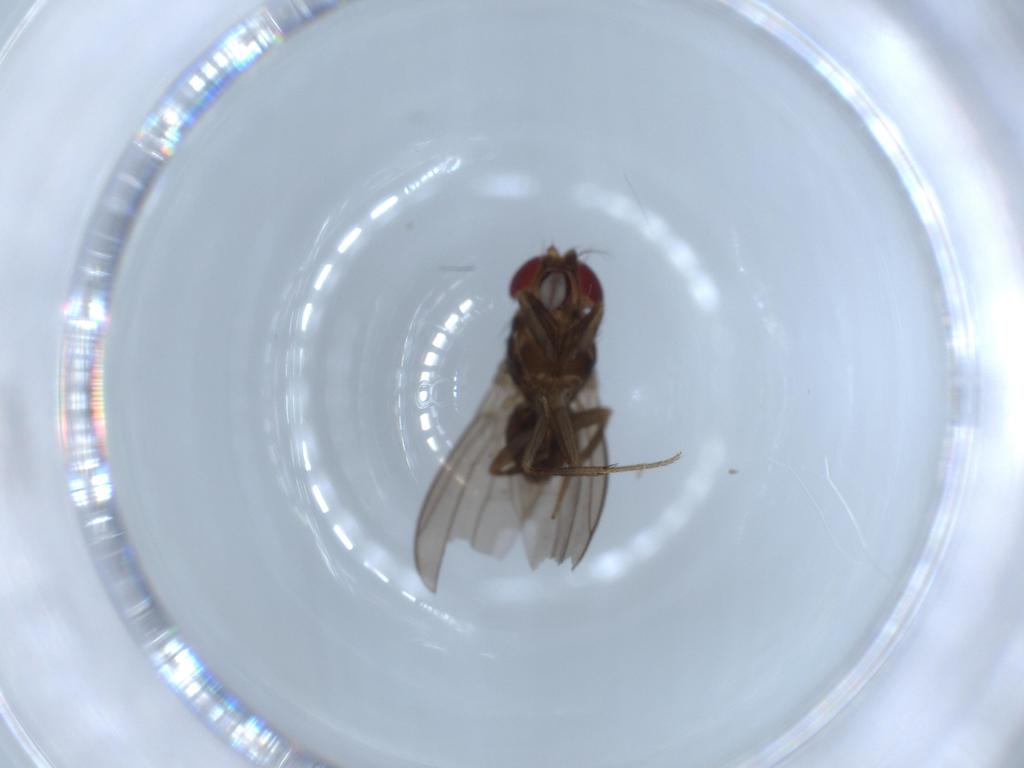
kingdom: Animalia
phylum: Arthropoda
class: Insecta
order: Diptera
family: Drosophilidae
